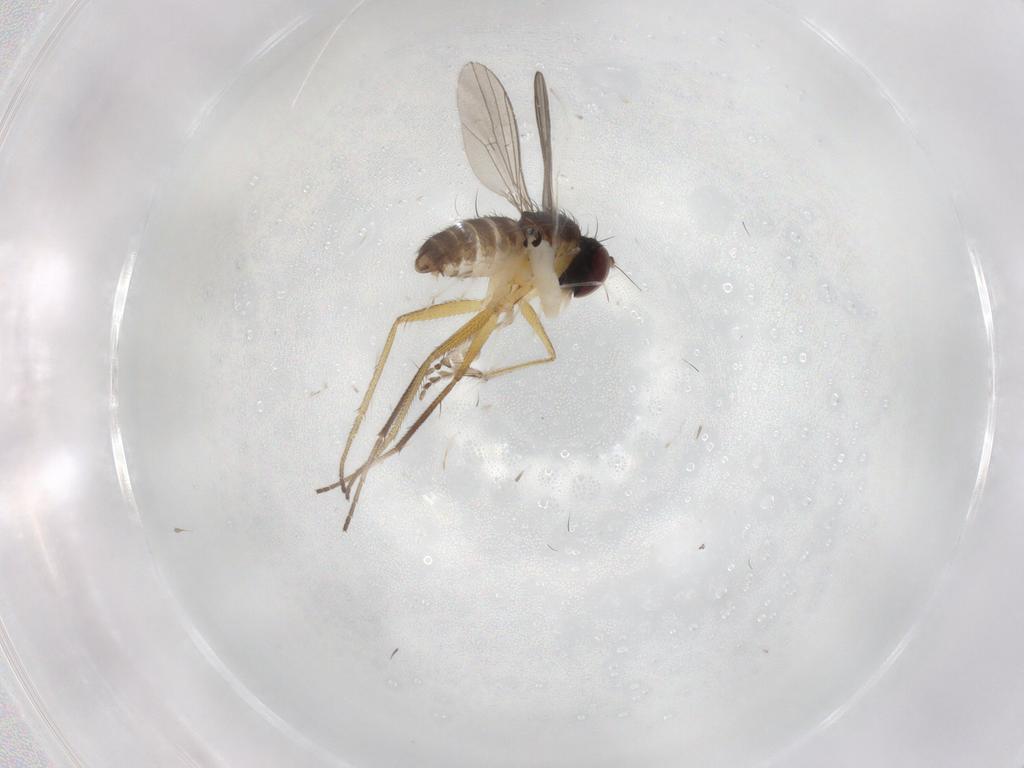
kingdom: Animalia
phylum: Arthropoda
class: Insecta
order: Diptera
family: Dolichopodidae
